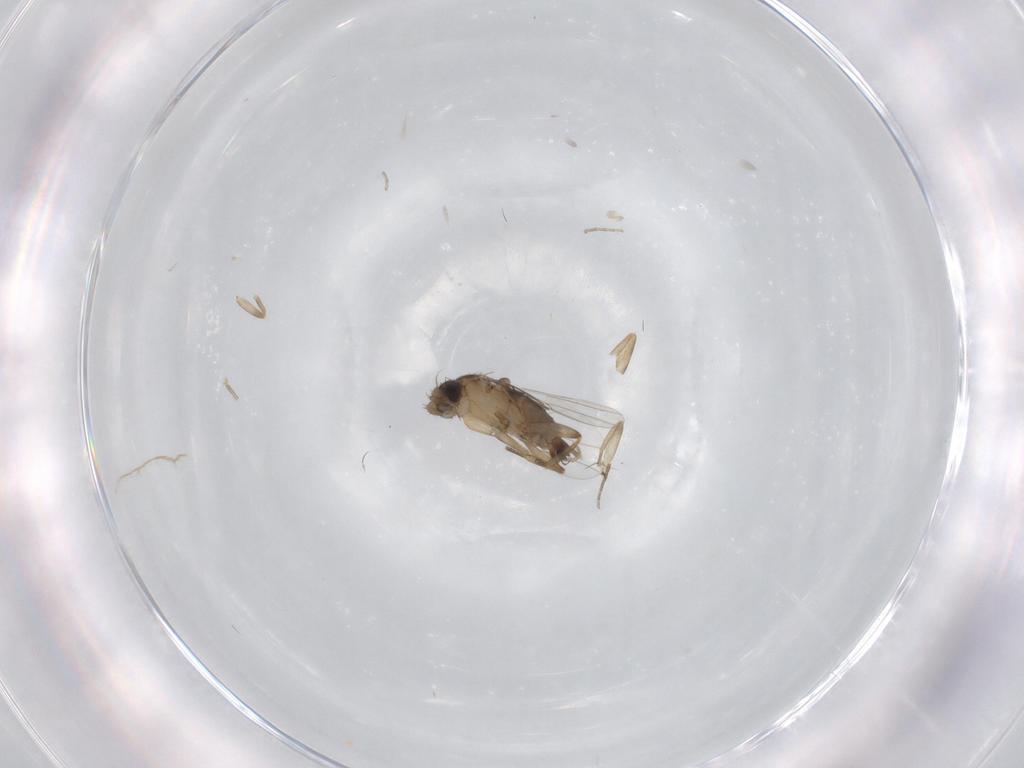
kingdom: Animalia
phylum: Arthropoda
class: Insecta
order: Diptera
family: Phoridae
